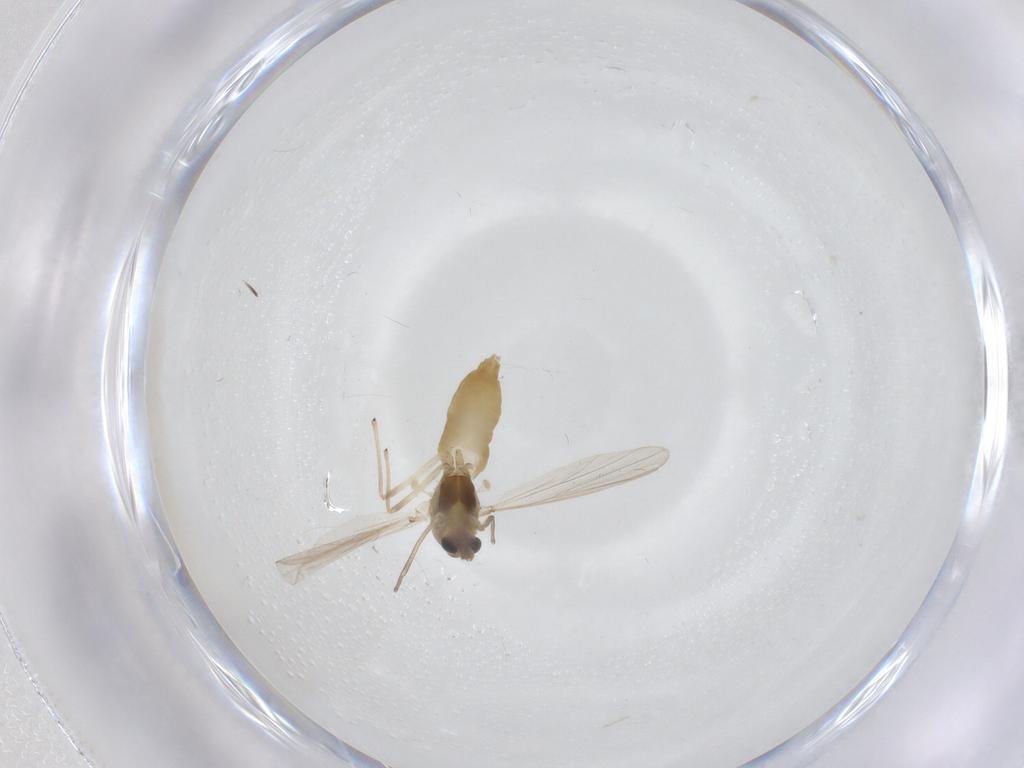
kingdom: Animalia
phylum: Arthropoda
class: Insecta
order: Diptera
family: Chironomidae
